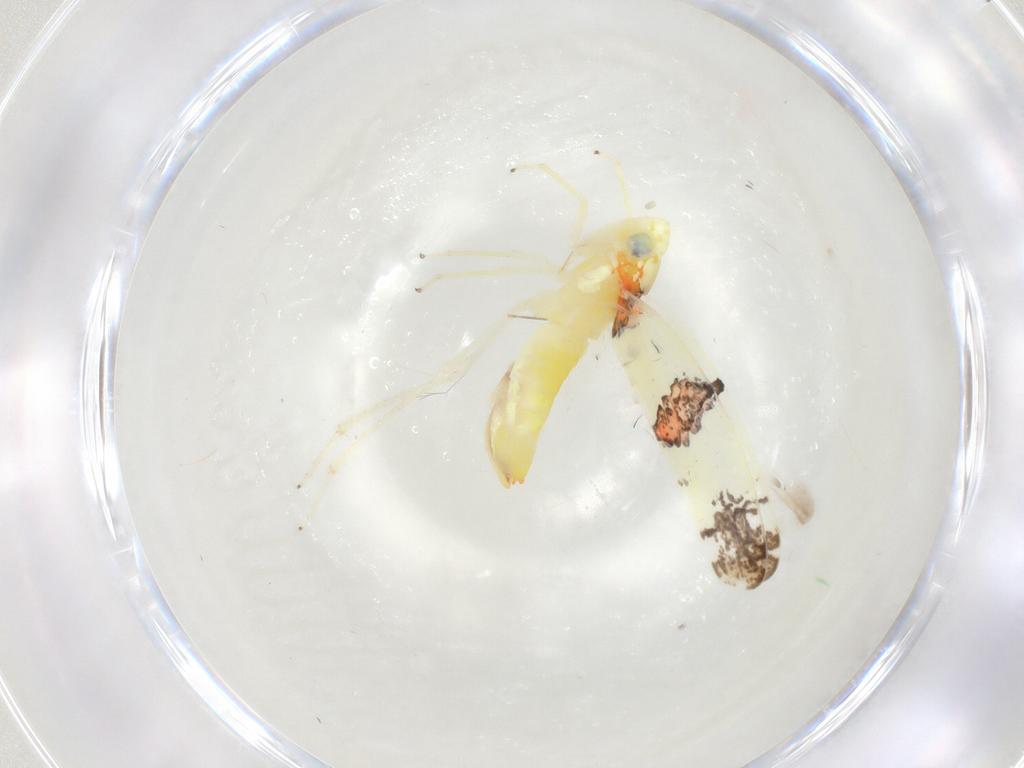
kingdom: Animalia
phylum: Arthropoda
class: Insecta
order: Hemiptera
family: Cicadellidae
